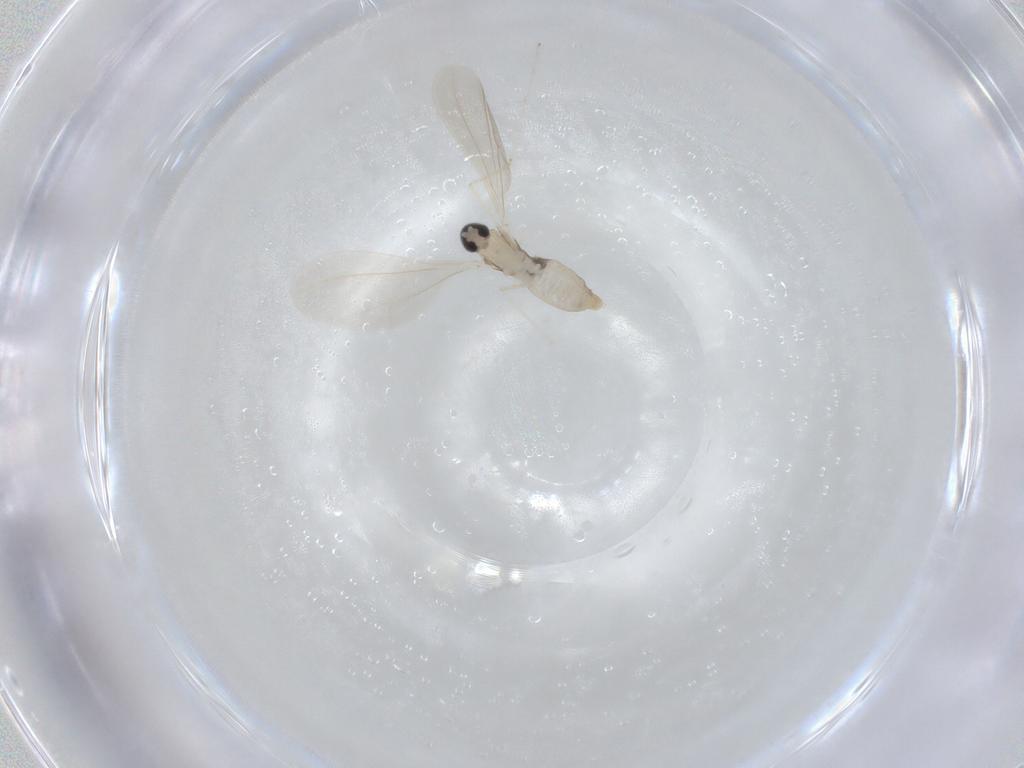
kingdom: Animalia
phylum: Arthropoda
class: Insecta
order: Diptera
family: Cecidomyiidae
